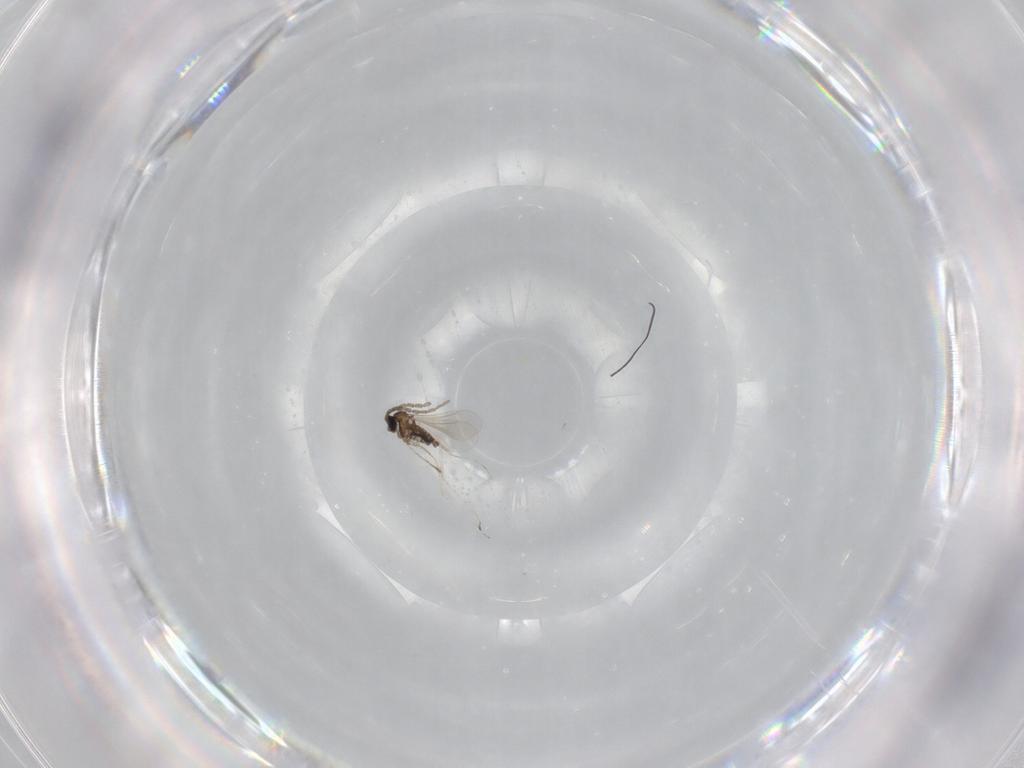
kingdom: Animalia
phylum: Arthropoda
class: Insecta
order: Diptera
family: Cecidomyiidae
